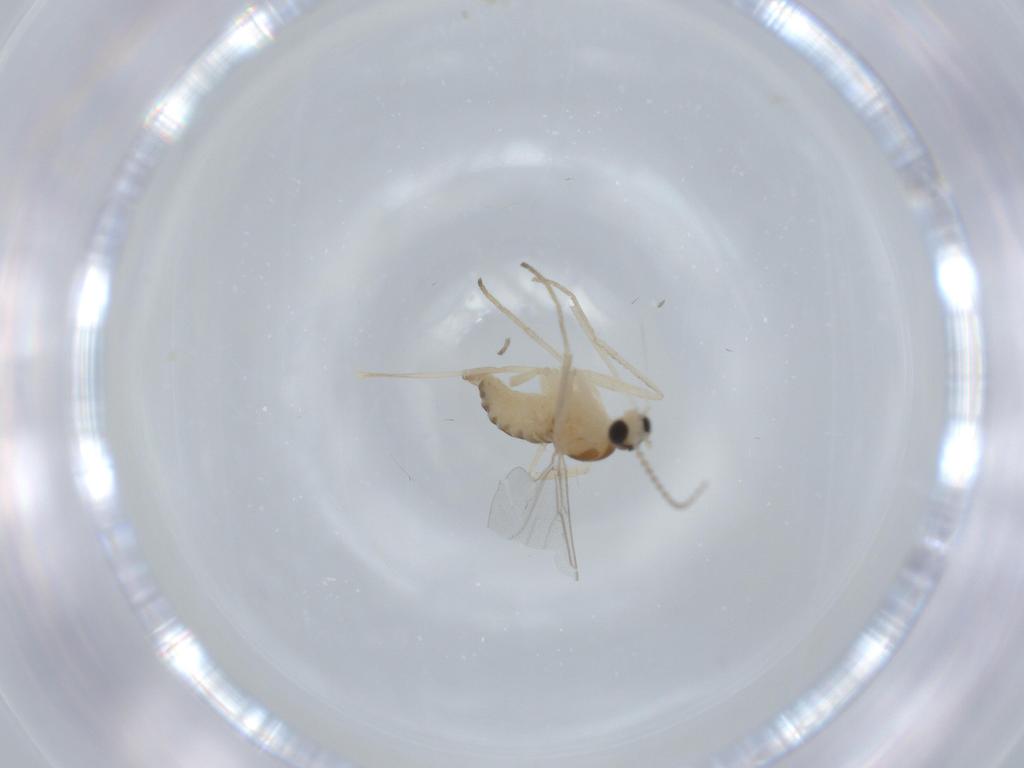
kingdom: Animalia
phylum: Arthropoda
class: Insecta
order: Diptera
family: Cecidomyiidae
